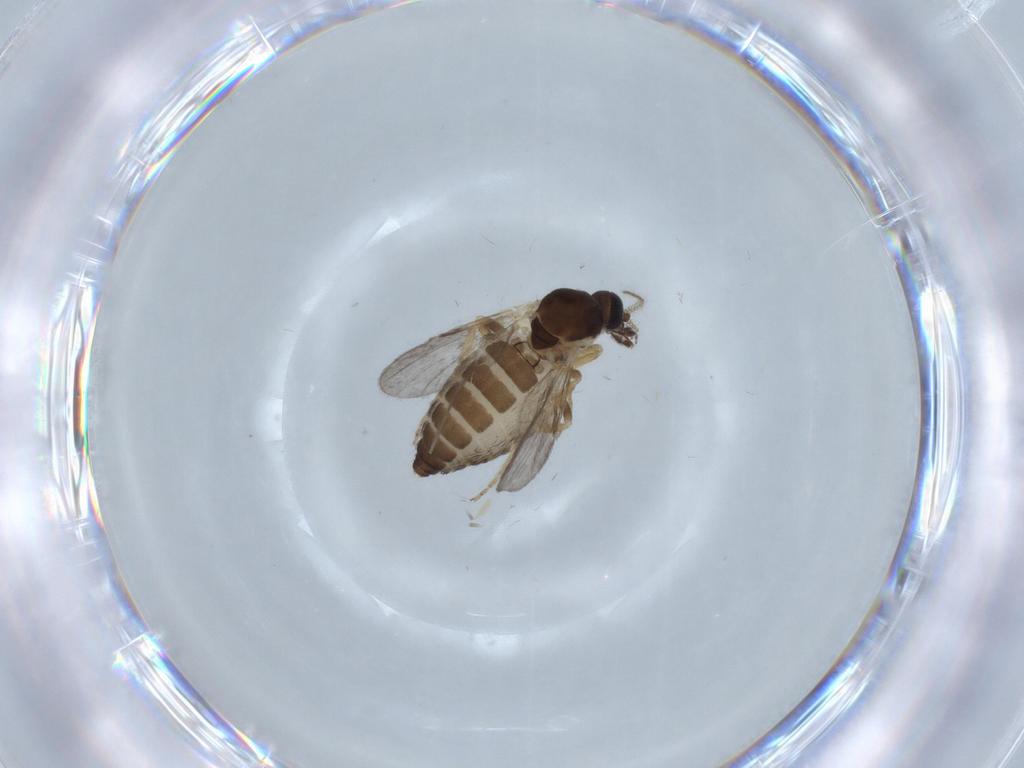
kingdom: Animalia
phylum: Arthropoda
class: Insecta
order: Diptera
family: Ceratopogonidae
